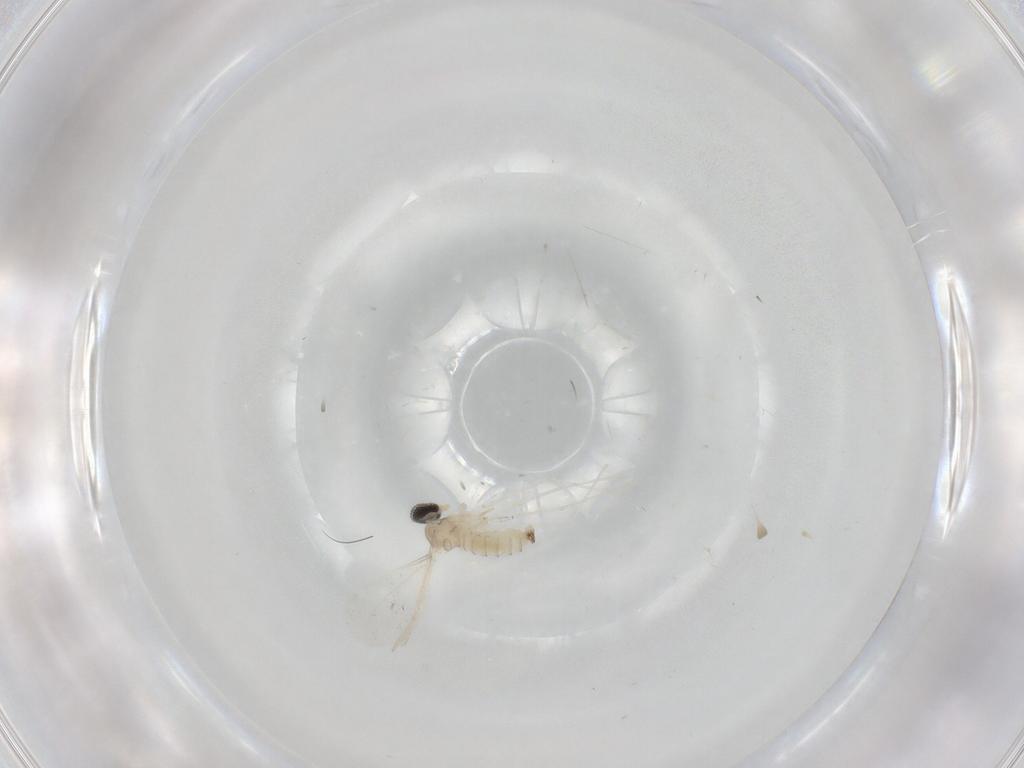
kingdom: Animalia
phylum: Arthropoda
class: Insecta
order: Diptera
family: Cecidomyiidae
